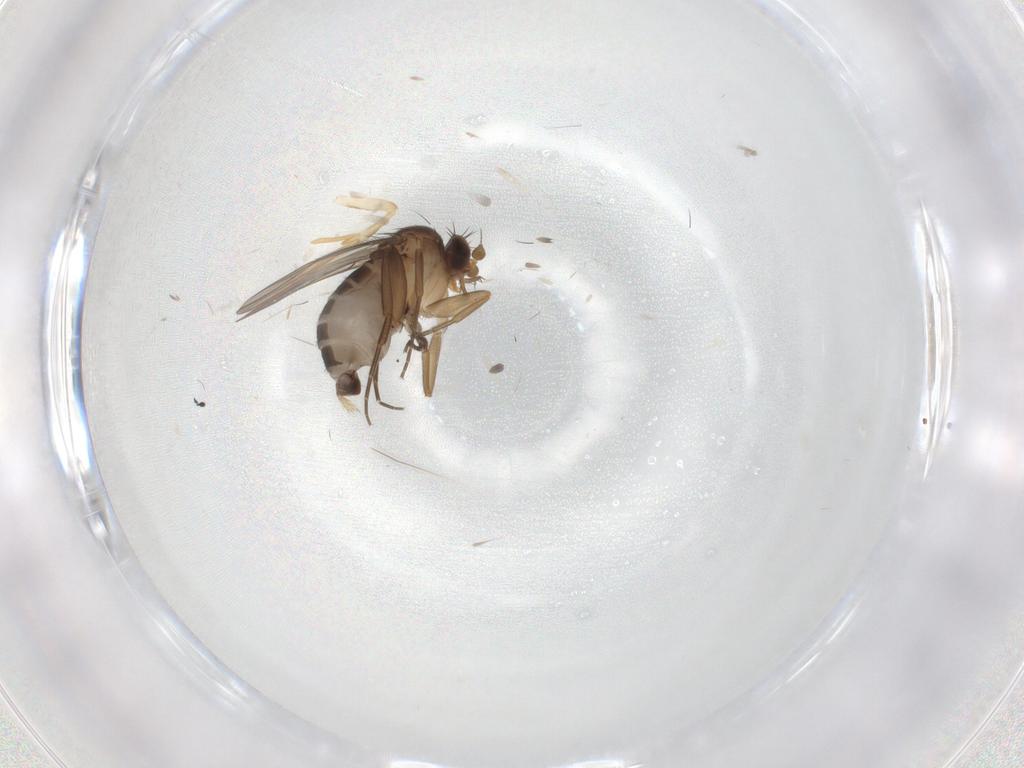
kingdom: Animalia
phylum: Arthropoda
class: Insecta
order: Diptera
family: Phoridae
